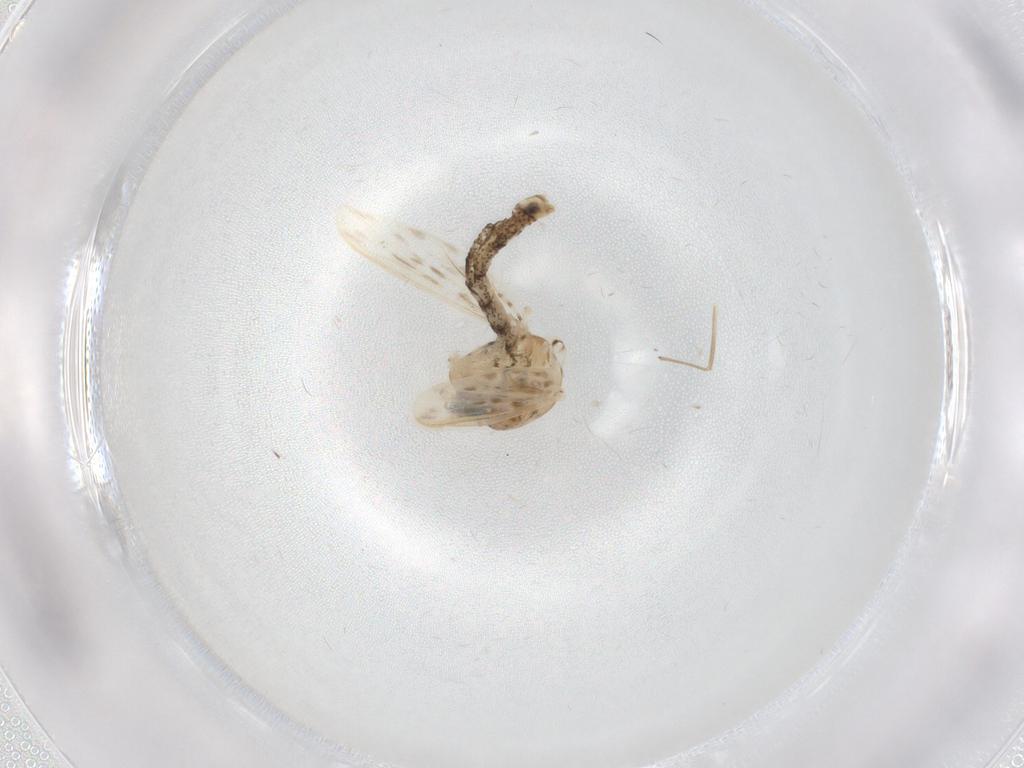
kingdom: Animalia
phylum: Arthropoda
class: Insecta
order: Diptera
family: Chaoboridae
